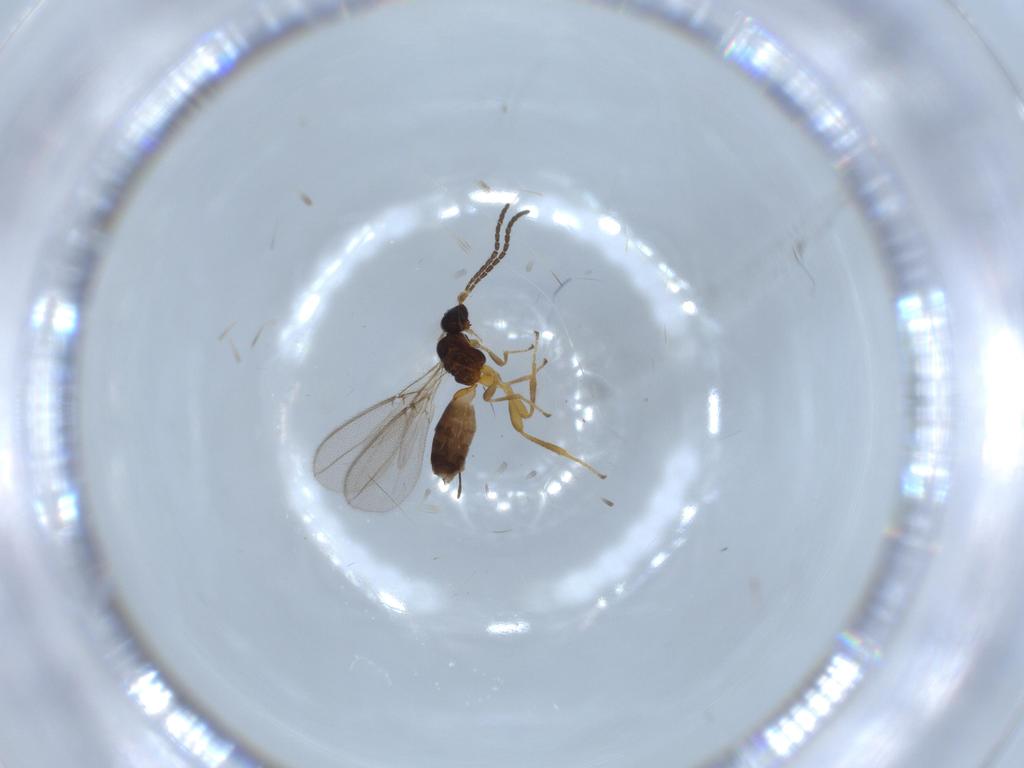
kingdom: Animalia
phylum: Arthropoda
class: Insecta
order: Hymenoptera
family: Braconidae
